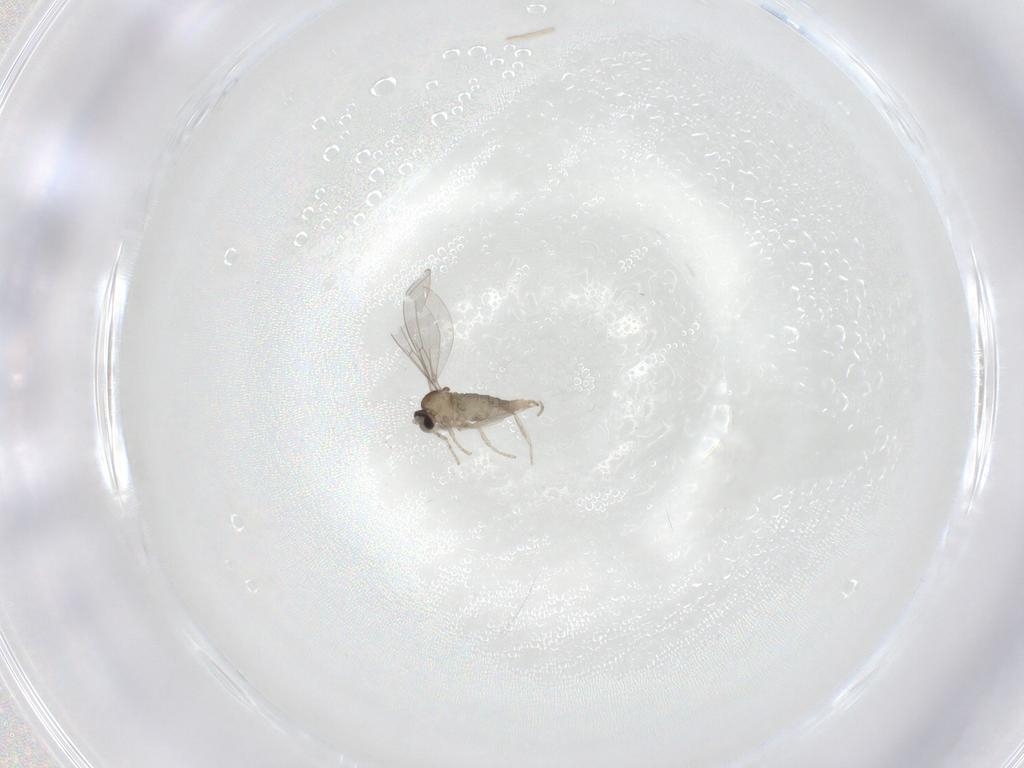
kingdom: Animalia
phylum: Arthropoda
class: Insecta
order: Diptera
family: Cecidomyiidae
